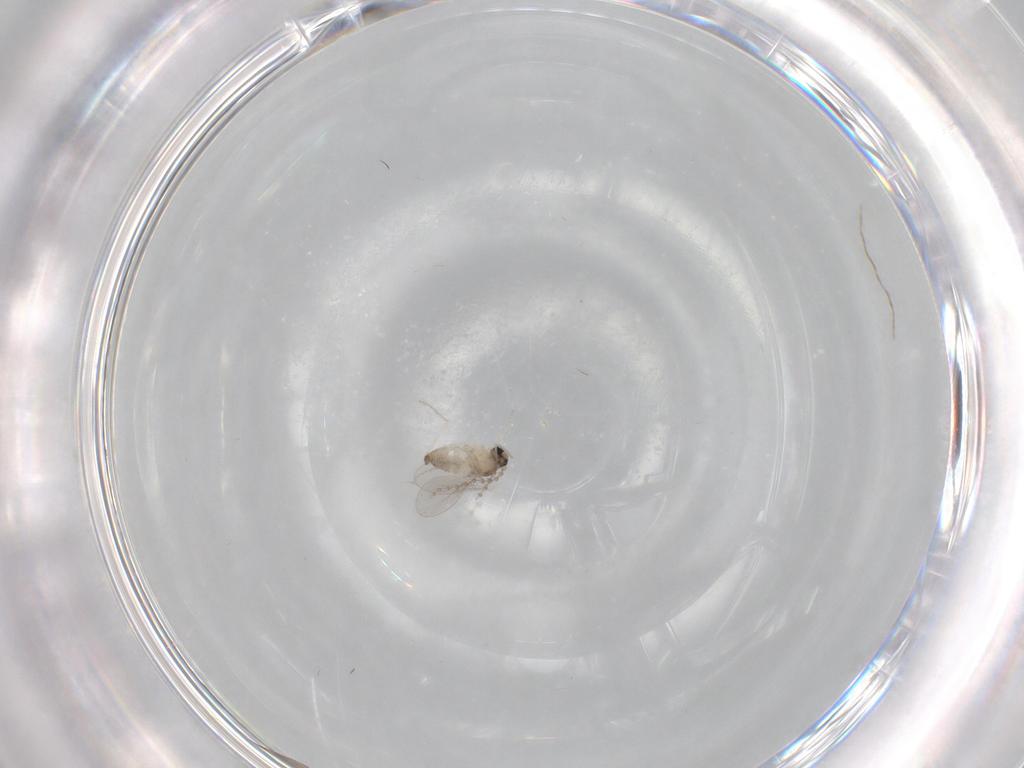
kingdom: Animalia
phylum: Arthropoda
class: Insecta
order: Diptera
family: Cecidomyiidae
